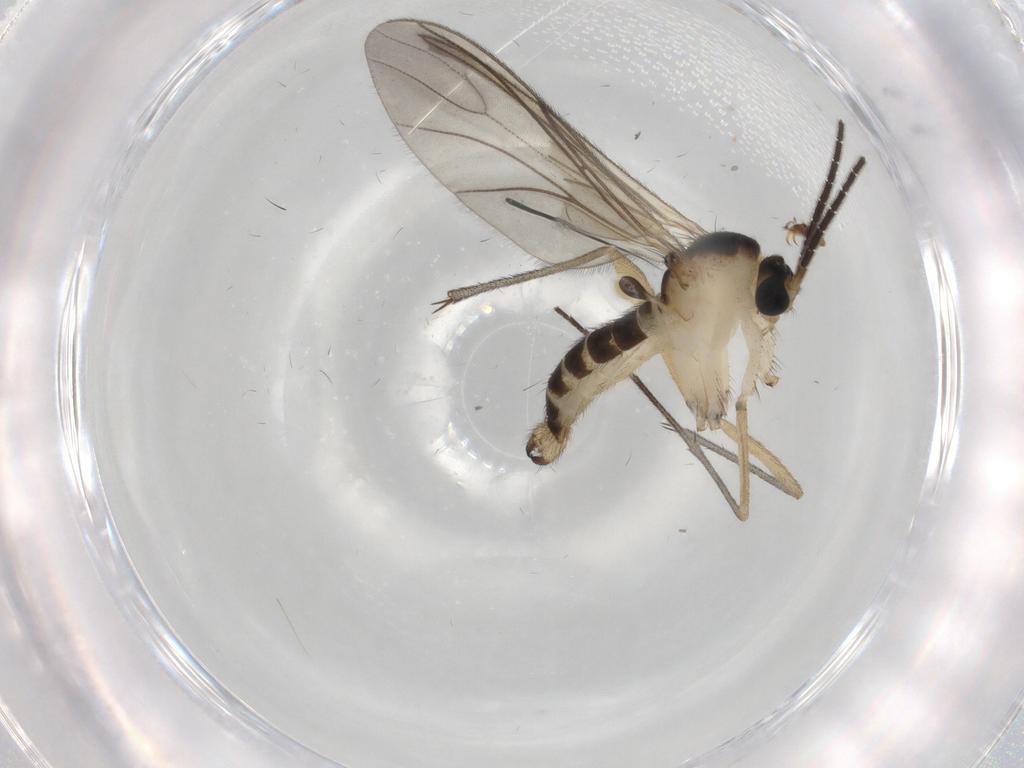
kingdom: Animalia
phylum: Arthropoda
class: Insecta
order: Diptera
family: Sciaridae
